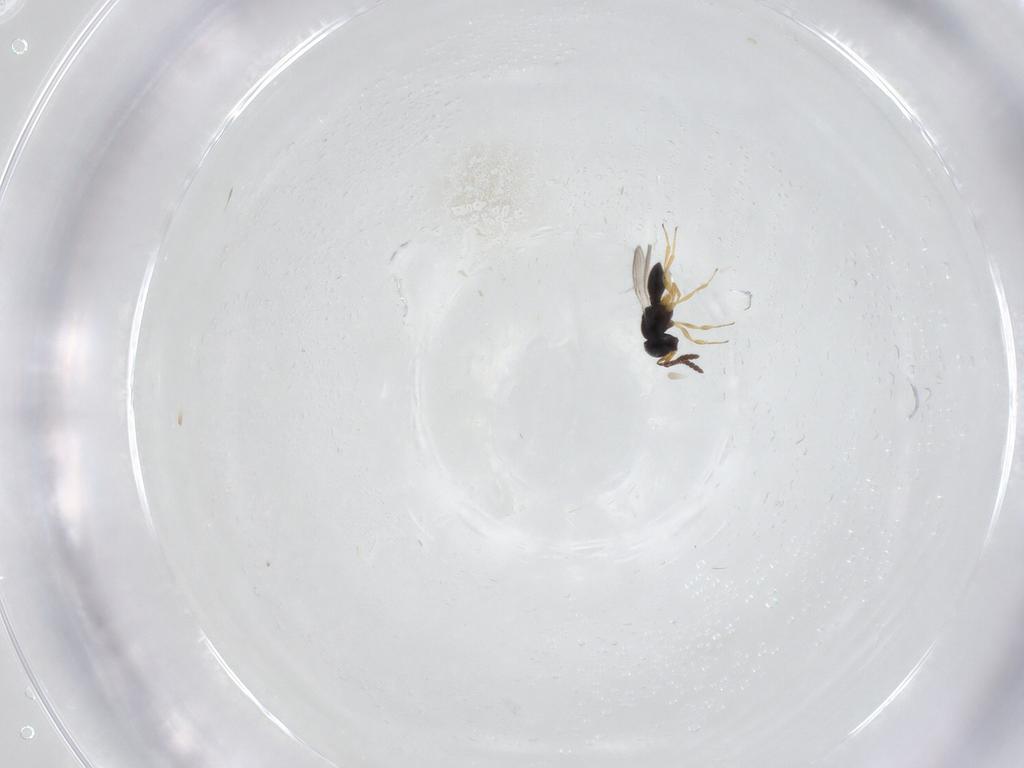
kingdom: Animalia
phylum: Arthropoda
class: Insecta
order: Hymenoptera
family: Scelionidae
